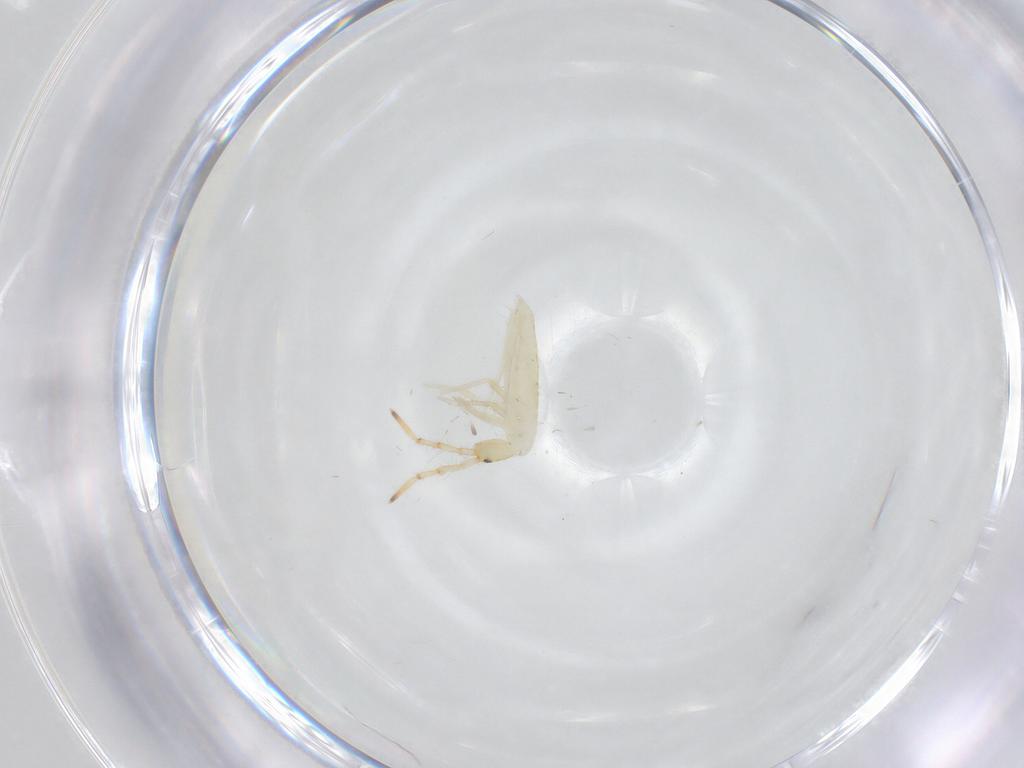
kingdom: Animalia
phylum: Arthropoda
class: Collembola
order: Entomobryomorpha
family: Entomobryidae
